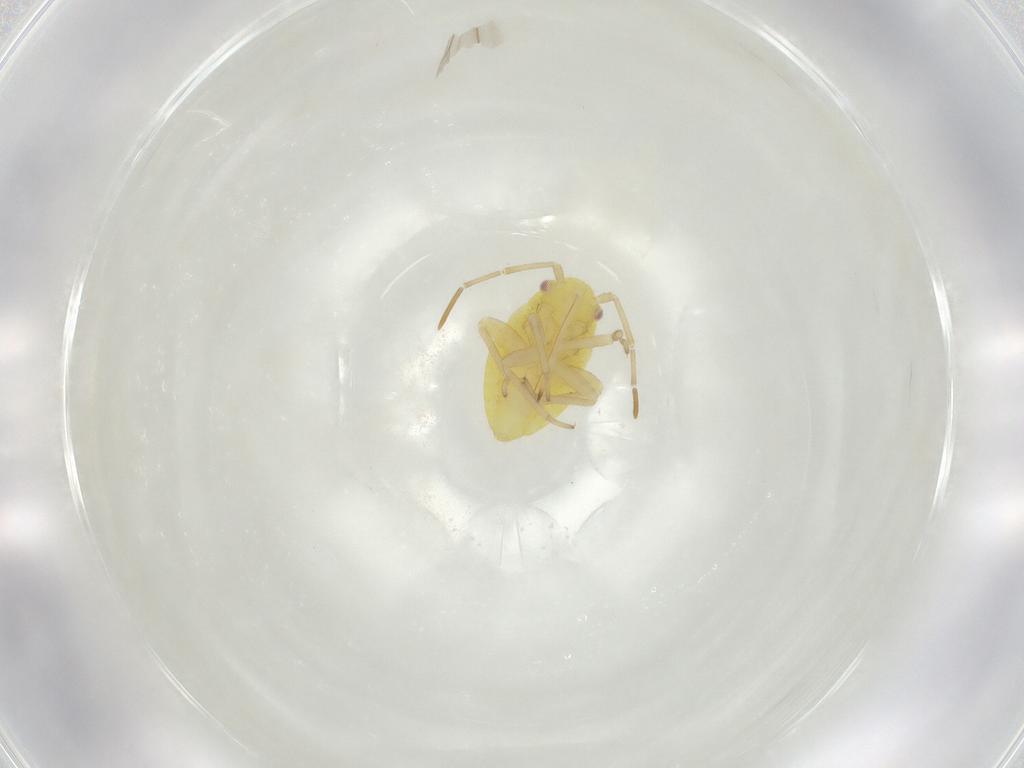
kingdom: Animalia
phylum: Arthropoda
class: Insecta
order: Hemiptera
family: Miridae
